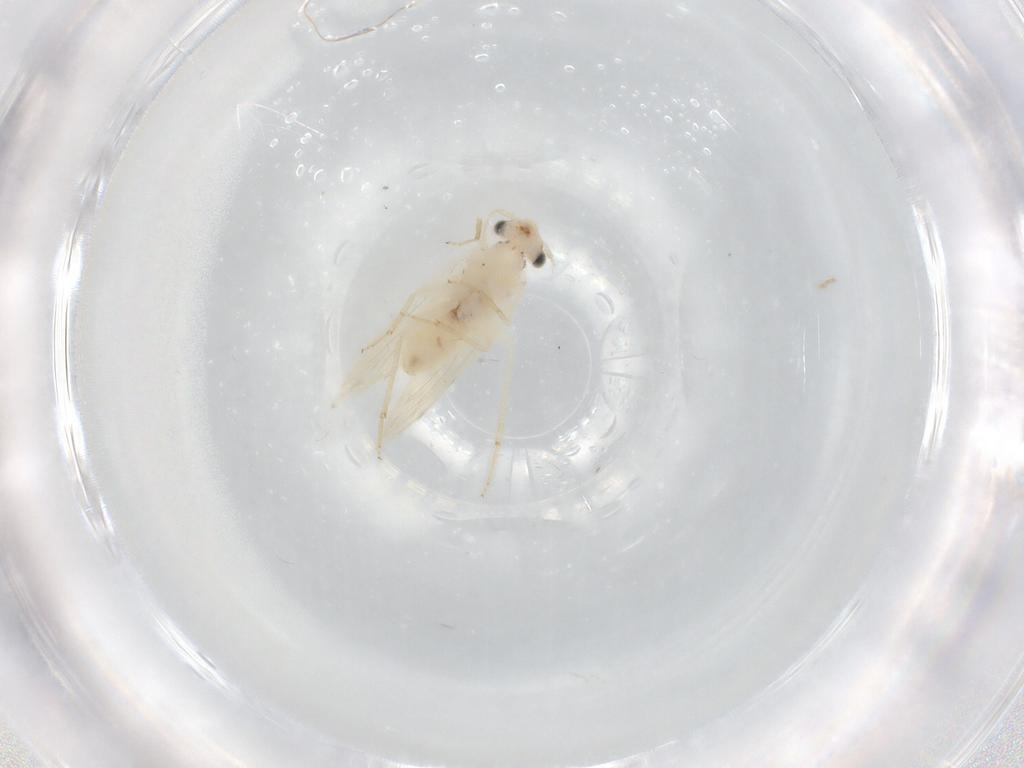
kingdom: Animalia
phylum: Arthropoda
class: Insecta
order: Psocodea
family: Lepidopsocidae
